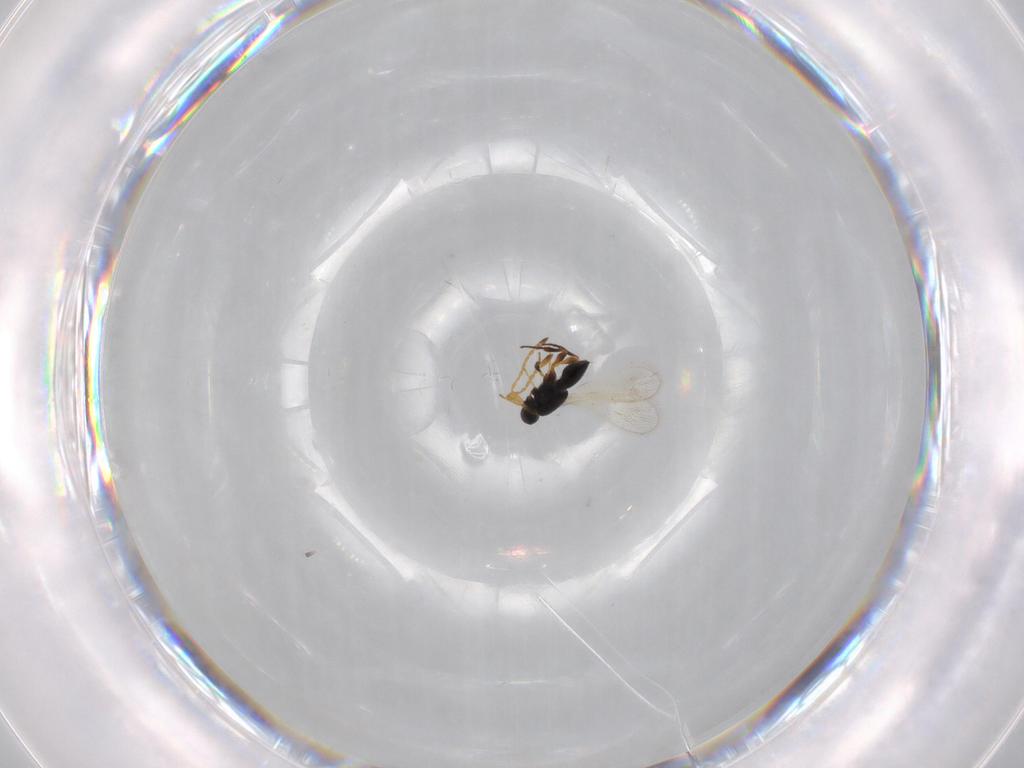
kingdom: Animalia
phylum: Arthropoda
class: Insecta
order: Hymenoptera
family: Platygastridae
